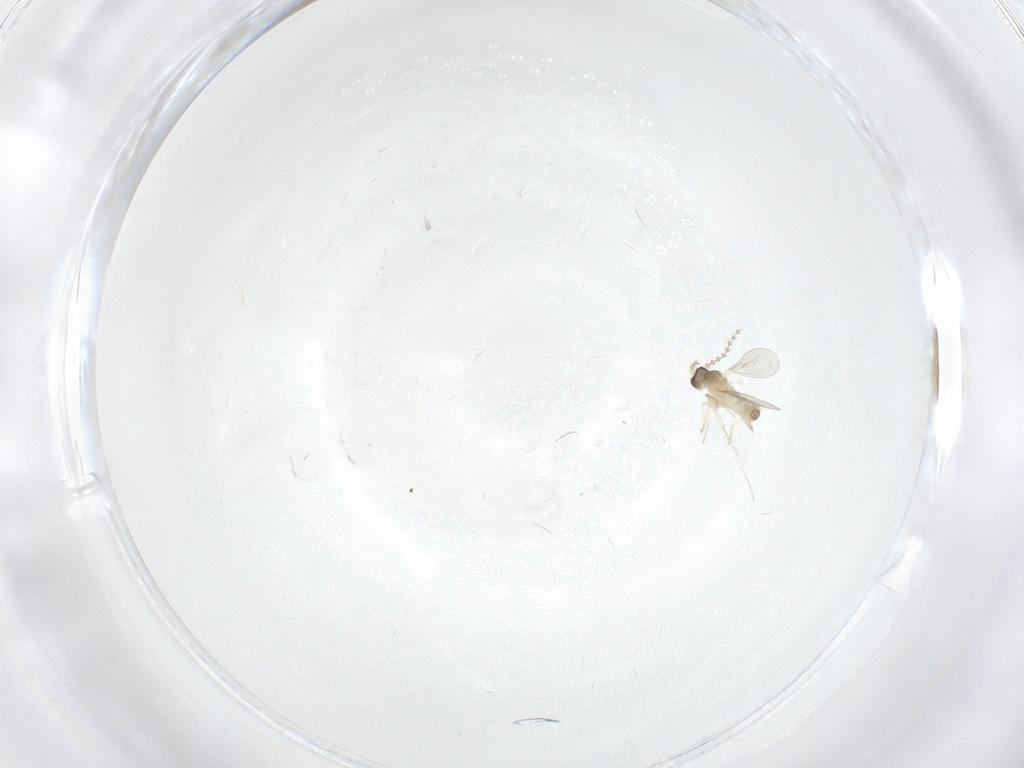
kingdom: Animalia
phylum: Arthropoda
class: Insecta
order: Diptera
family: Cecidomyiidae
